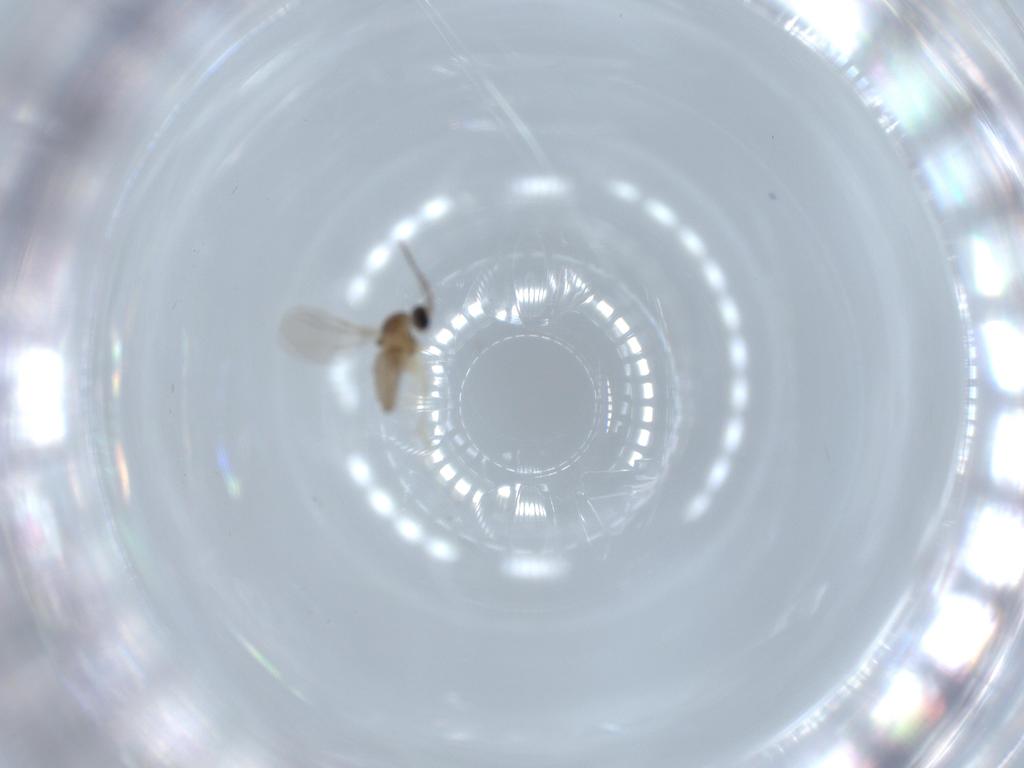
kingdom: Animalia
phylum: Arthropoda
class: Insecta
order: Diptera
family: Cecidomyiidae
